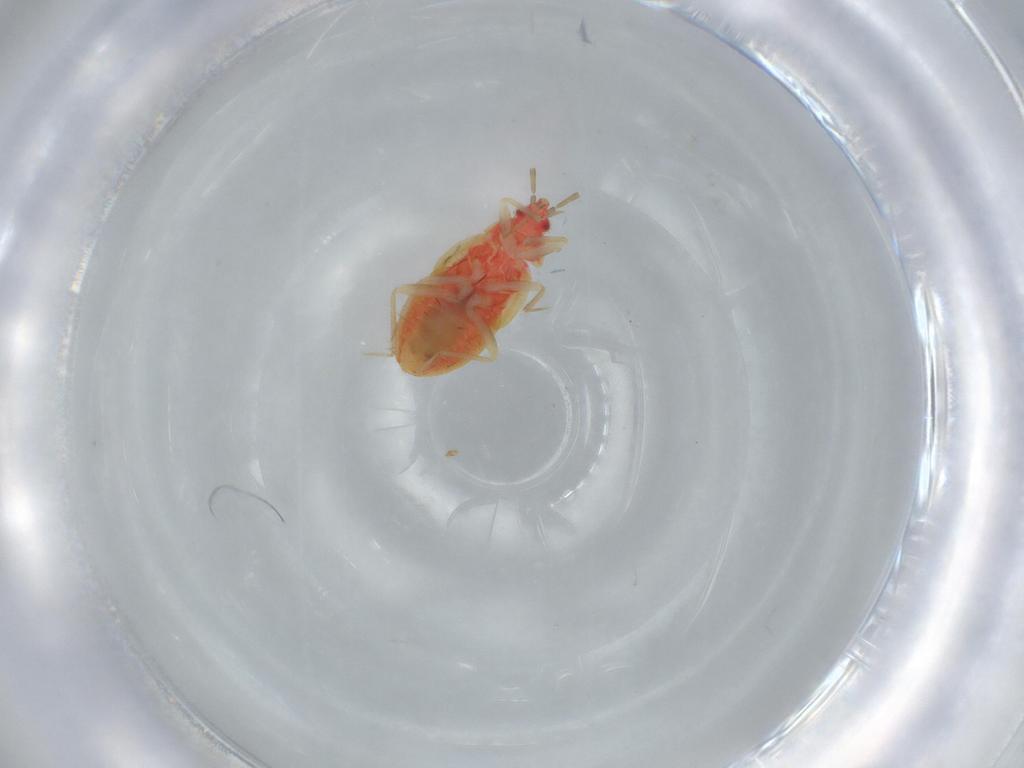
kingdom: Animalia
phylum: Arthropoda
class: Insecta
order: Hemiptera
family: Anthocoridae
